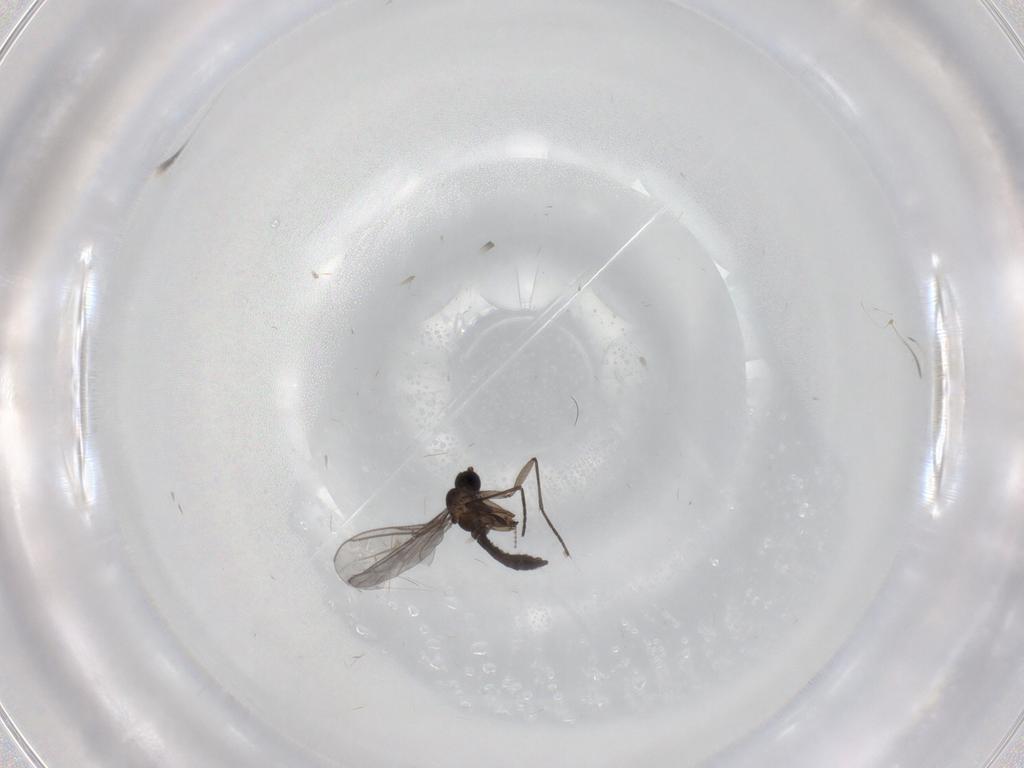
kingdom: Animalia
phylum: Arthropoda
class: Insecta
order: Diptera
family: Cecidomyiidae
